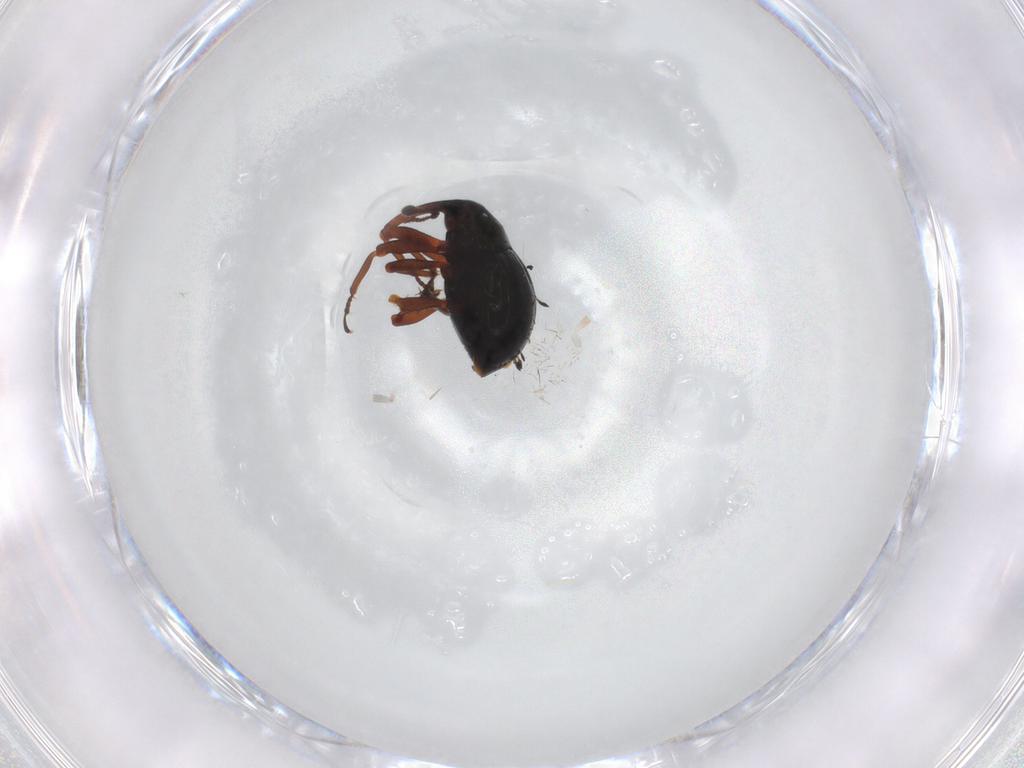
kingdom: Animalia
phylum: Arthropoda
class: Insecta
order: Coleoptera
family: Curculionidae
